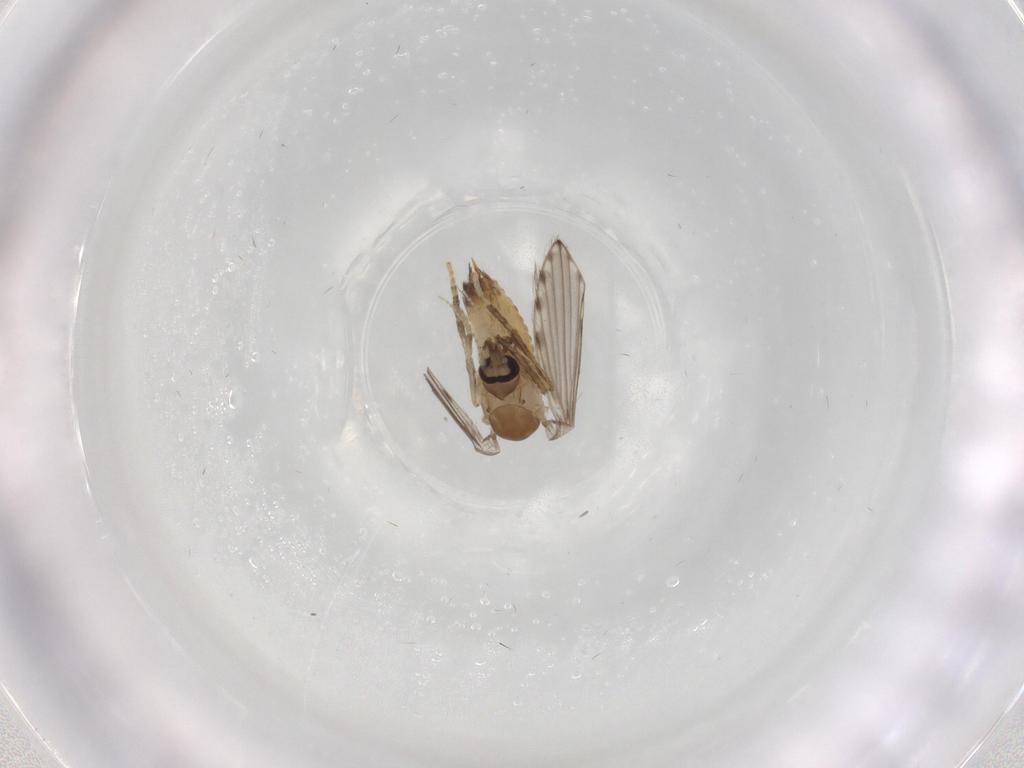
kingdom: Animalia
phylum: Arthropoda
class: Insecta
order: Diptera
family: Psychodidae
